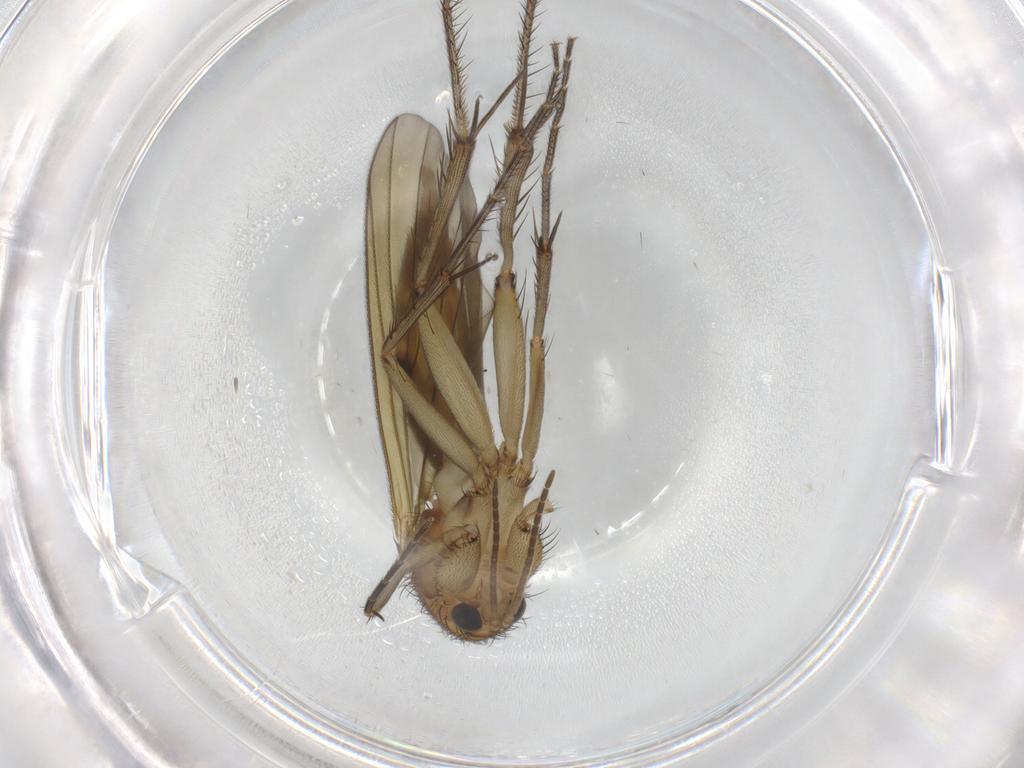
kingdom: Animalia
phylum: Arthropoda
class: Insecta
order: Diptera
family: Mycetophilidae
